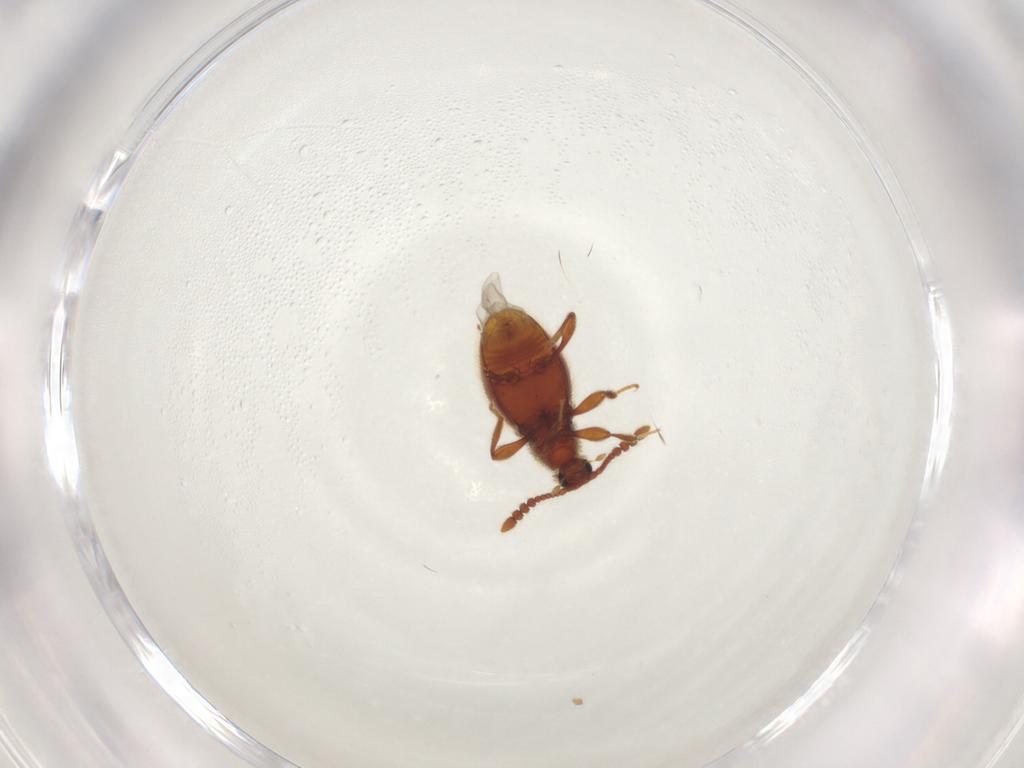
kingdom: Animalia
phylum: Arthropoda
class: Insecta
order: Coleoptera
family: Staphylinidae
